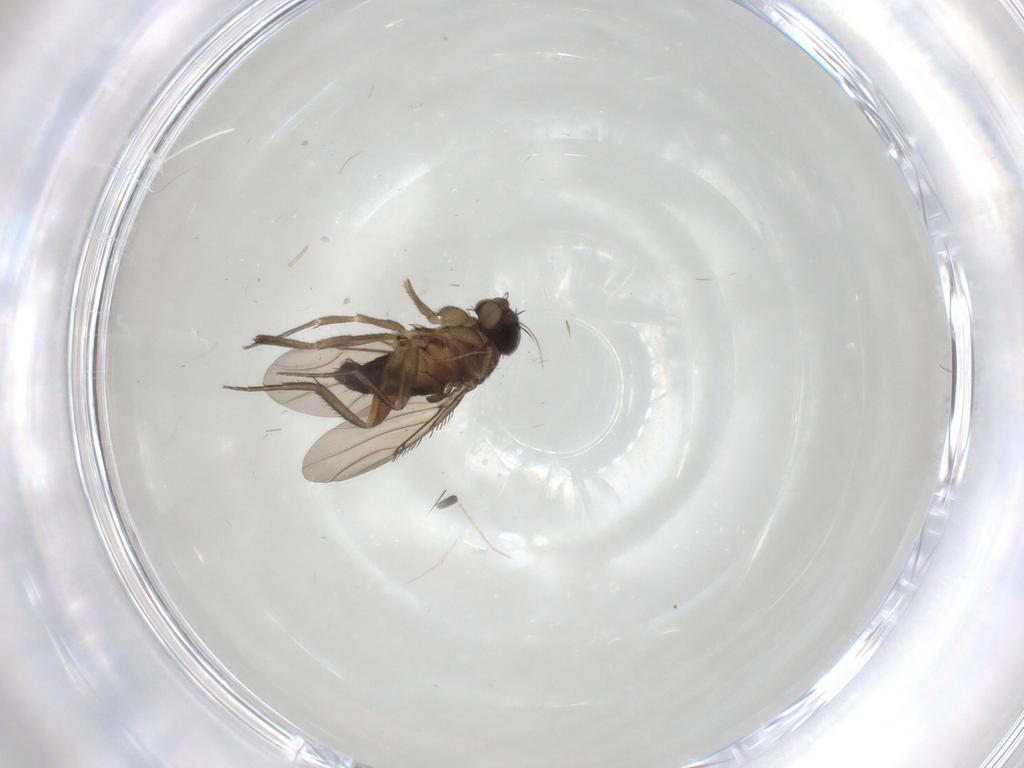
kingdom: Animalia
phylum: Arthropoda
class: Insecta
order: Diptera
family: Phoridae
